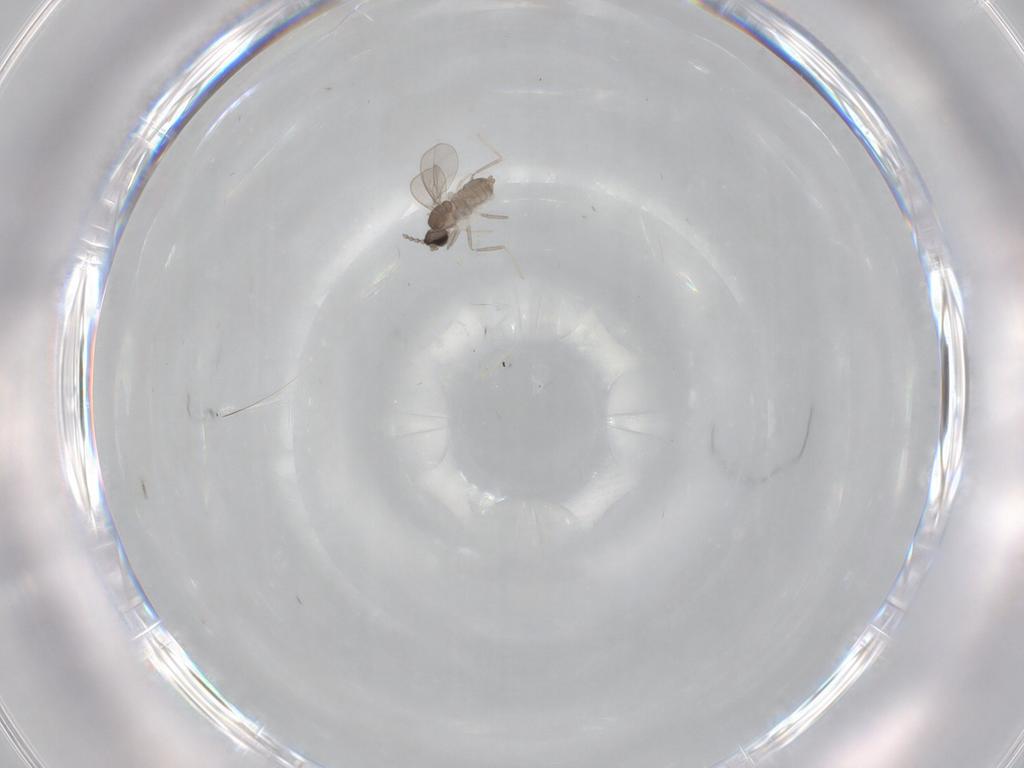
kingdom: Animalia
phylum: Arthropoda
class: Insecta
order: Diptera
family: Cecidomyiidae
